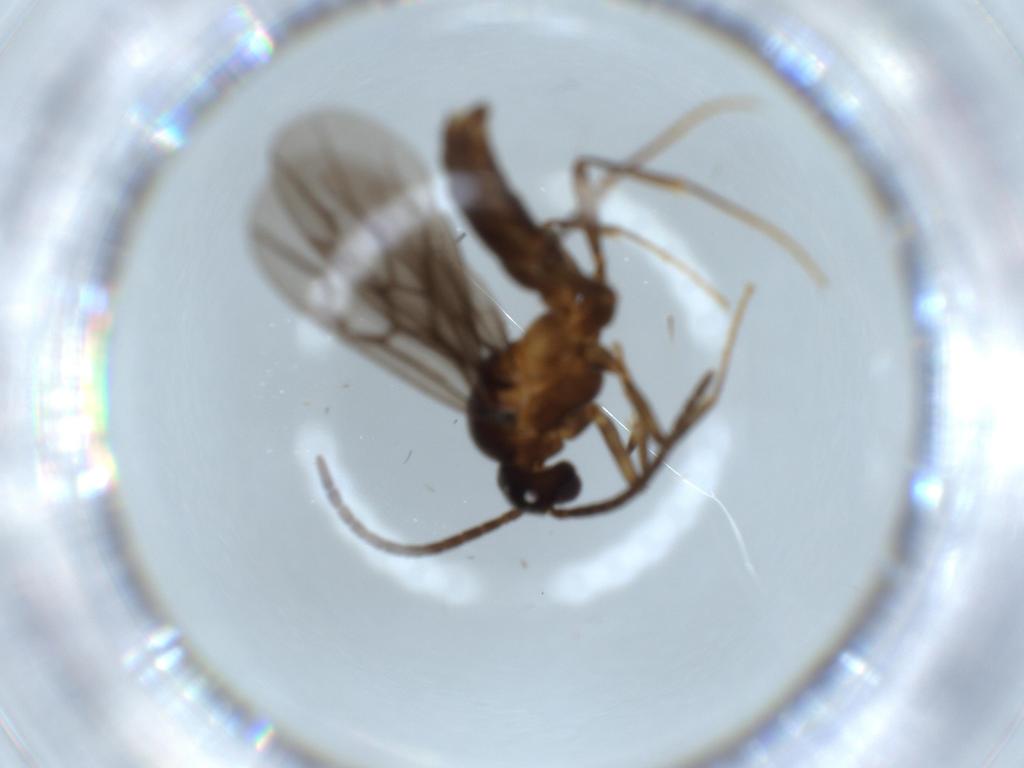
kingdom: Animalia
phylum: Arthropoda
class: Insecta
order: Hymenoptera
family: Formicidae
